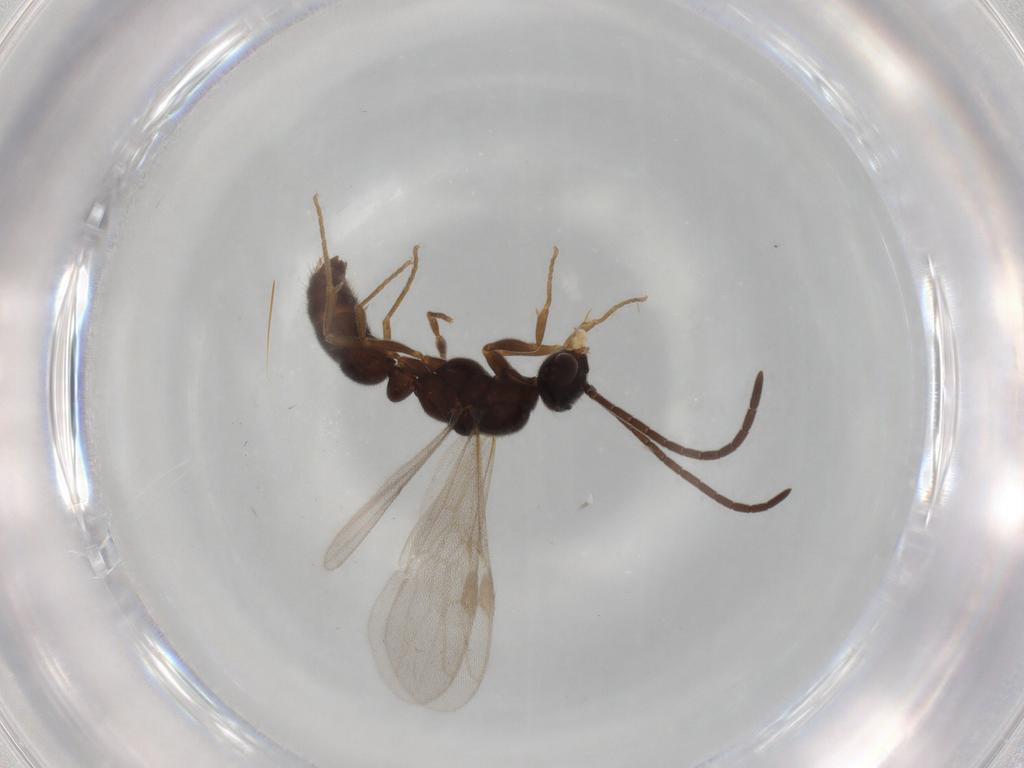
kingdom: Animalia
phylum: Arthropoda
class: Insecta
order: Hymenoptera
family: Formicidae
